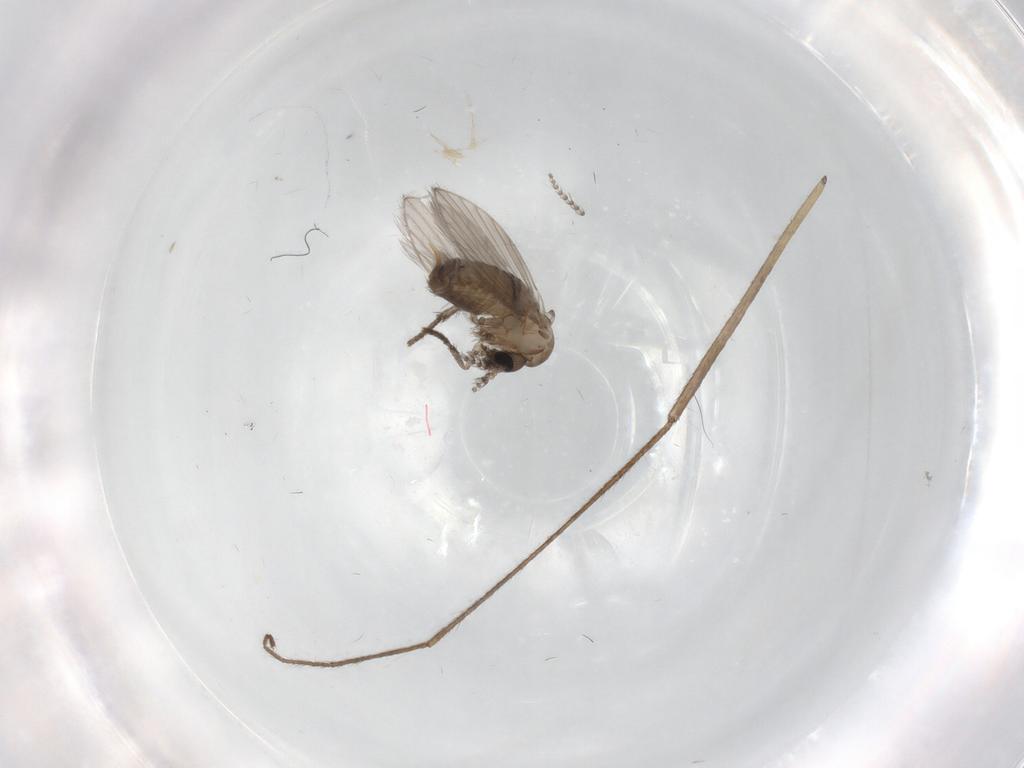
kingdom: Animalia
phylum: Arthropoda
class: Insecta
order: Diptera
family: Psychodidae
